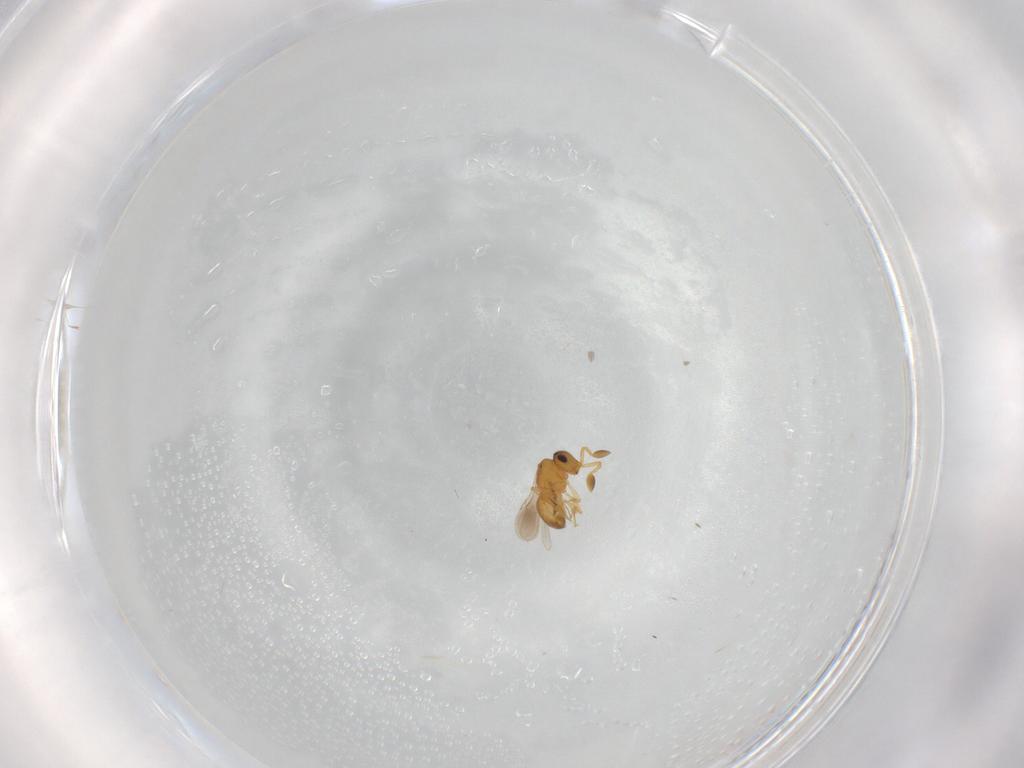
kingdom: Animalia
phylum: Arthropoda
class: Insecta
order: Hymenoptera
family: Scelionidae
